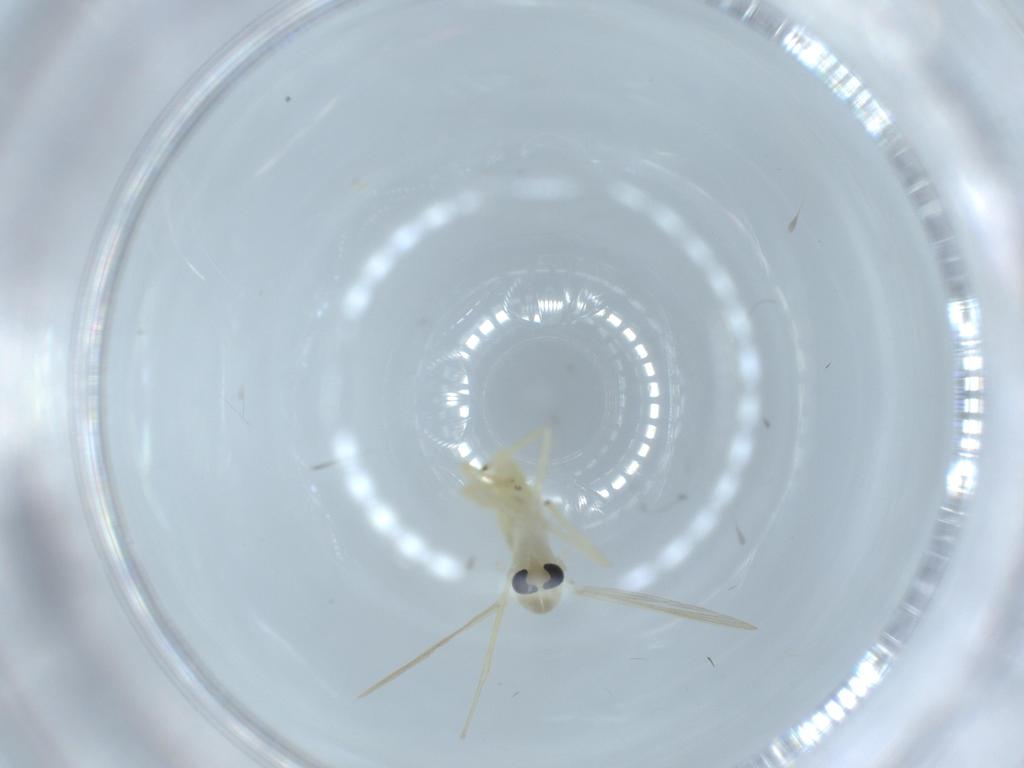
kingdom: Animalia
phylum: Arthropoda
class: Insecta
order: Diptera
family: Chironomidae
